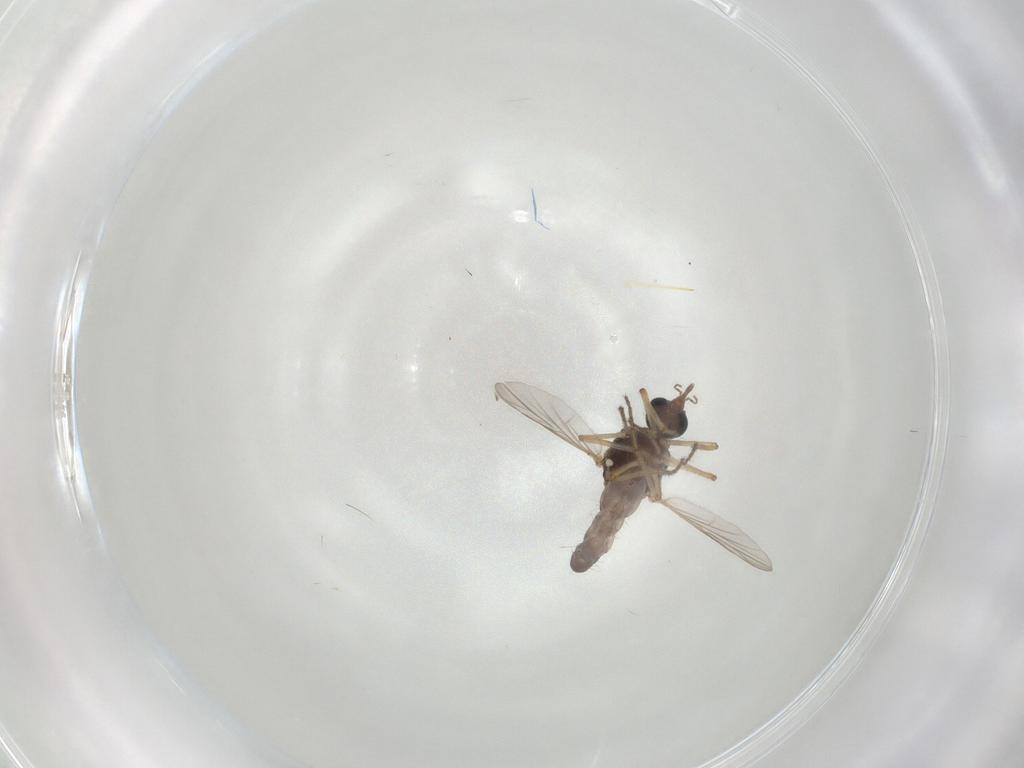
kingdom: Animalia
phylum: Arthropoda
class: Insecta
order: Diptera
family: Ceratopogonidae
